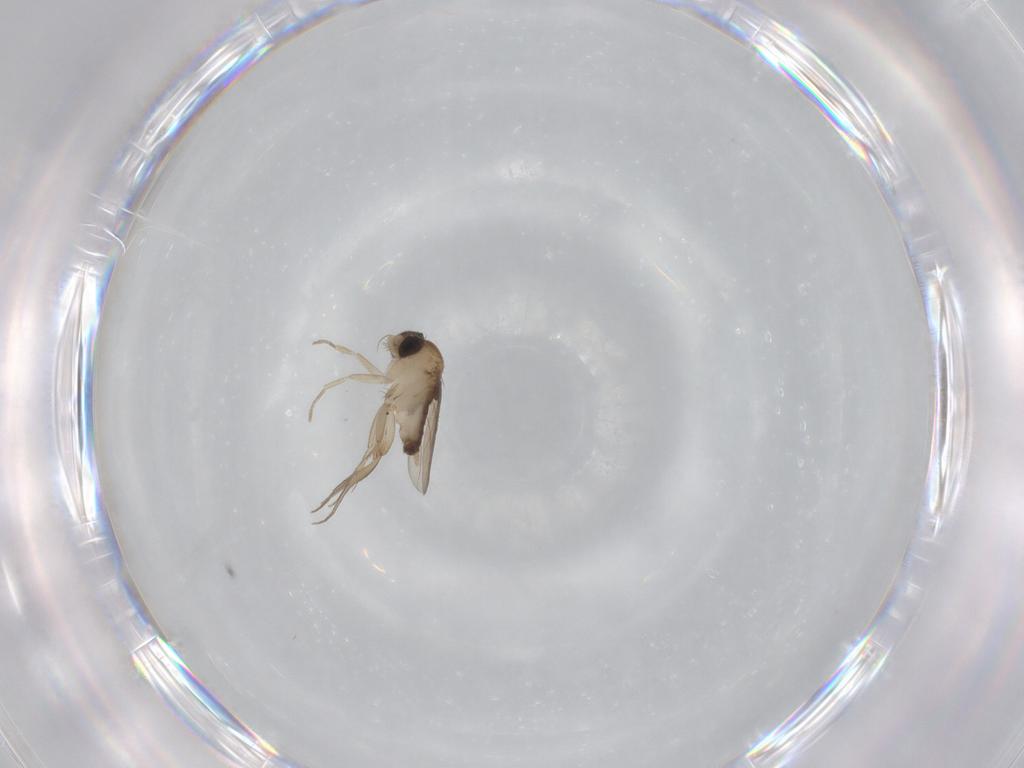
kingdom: Animalia
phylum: Arthropoda
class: Insecta
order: Diptera
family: Phoridae
